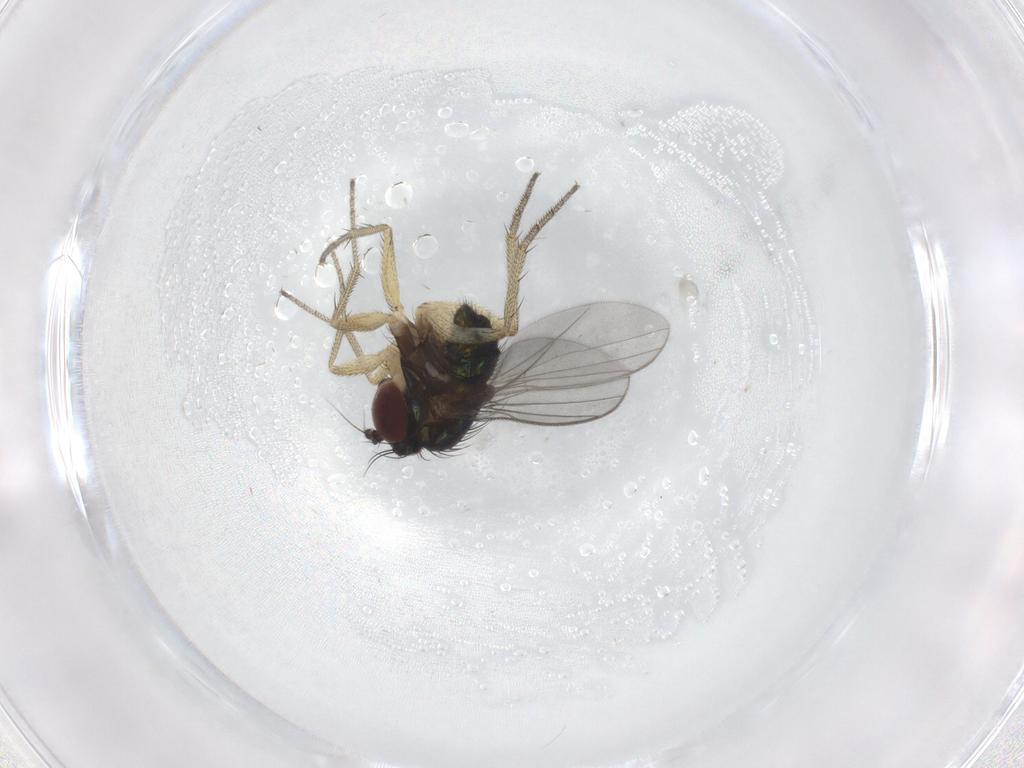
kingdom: Animalia
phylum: Arthropoda
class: Insecta
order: Diptera
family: Dolichopodidae
